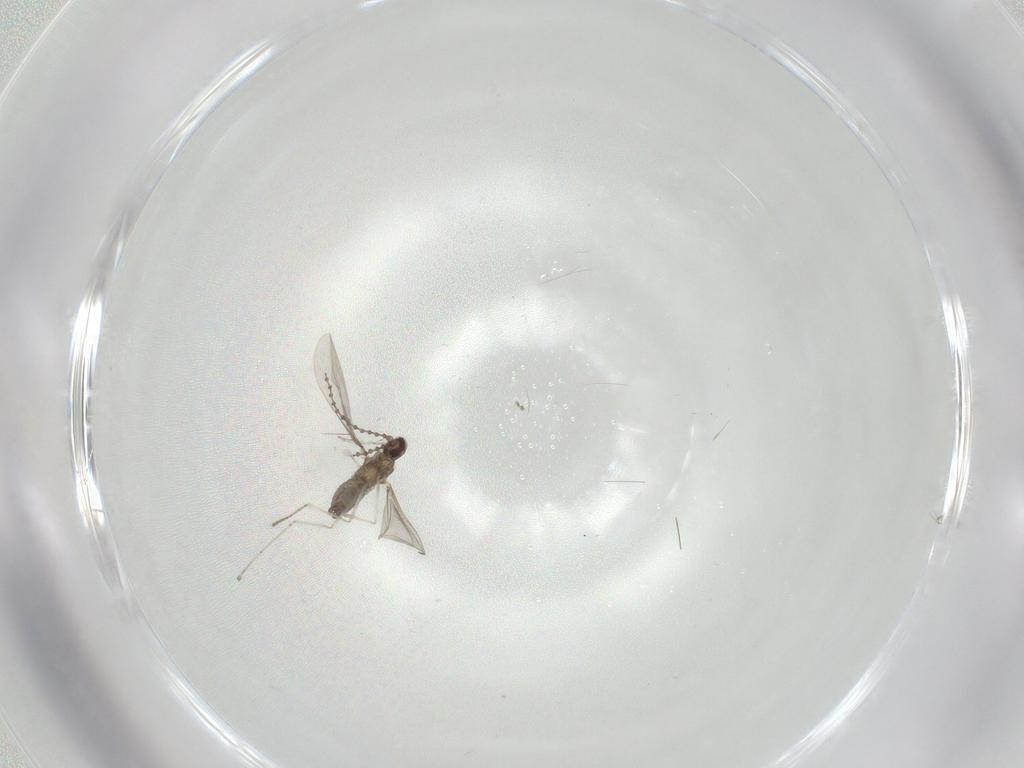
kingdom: Animalia
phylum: Arthropoda
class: Insecta
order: Diptera
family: Cecidomyiidae
